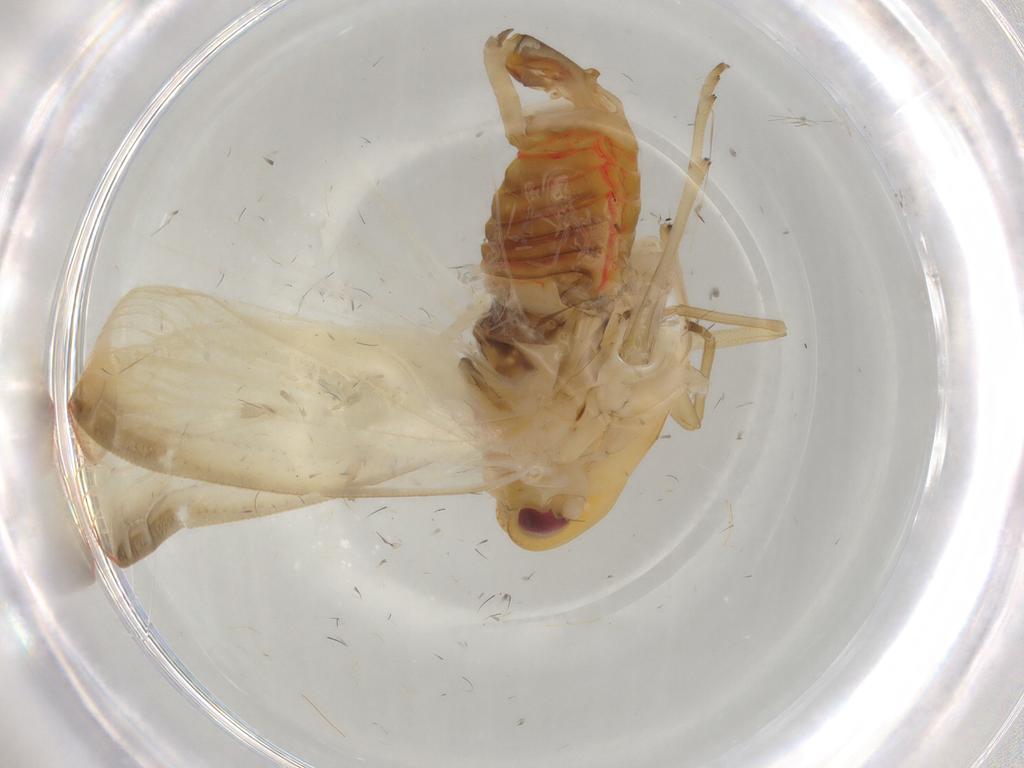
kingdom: Animalia
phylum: Arthropoda
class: Insecta
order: Hemiptera
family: Derbidae
